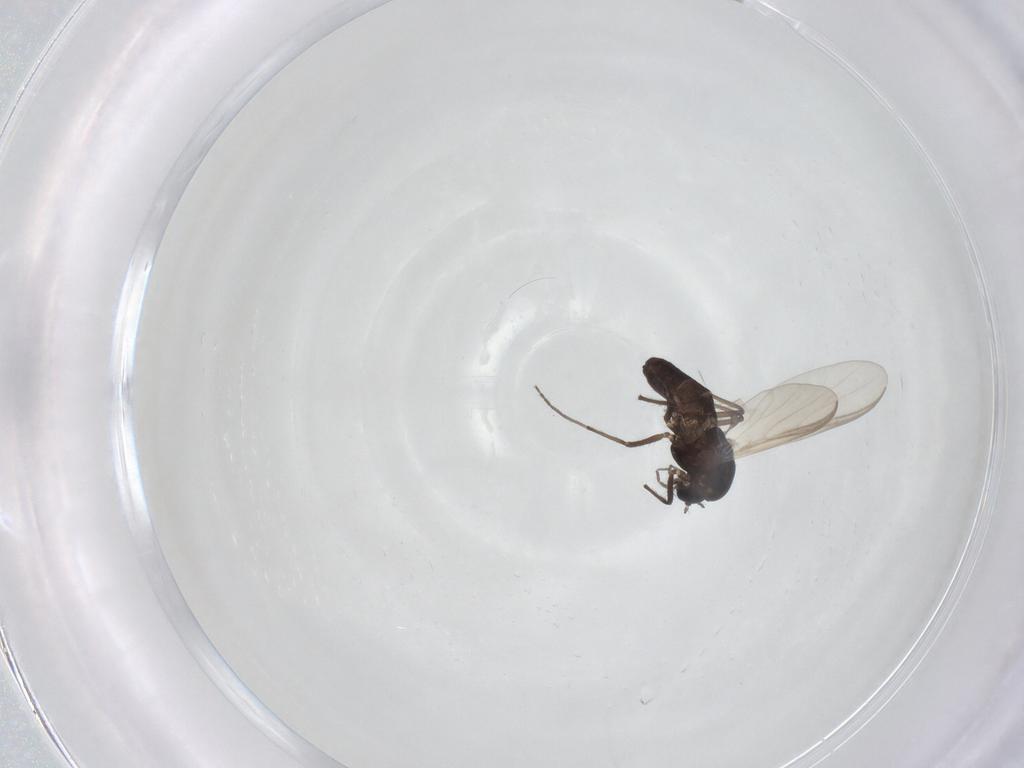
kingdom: Animalia
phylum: Arthropoda
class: Insecta
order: Diptera
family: Chironomidae
